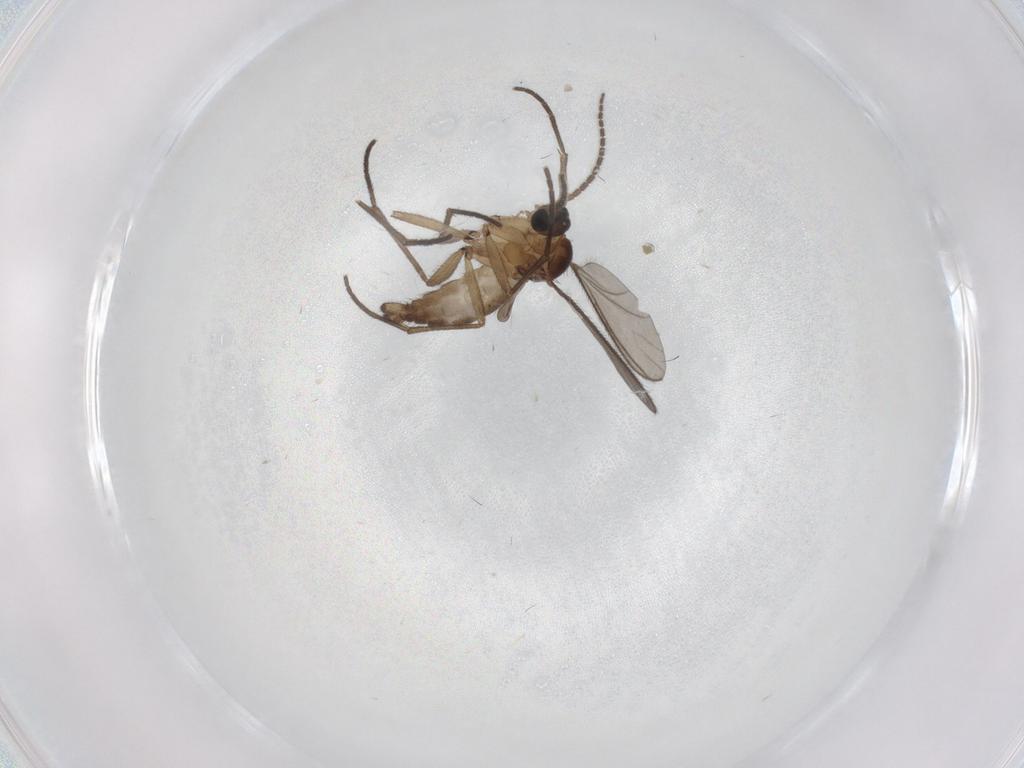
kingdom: Animalia
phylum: Arthropoda
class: Insecta
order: Diptera
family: Sciaridae
